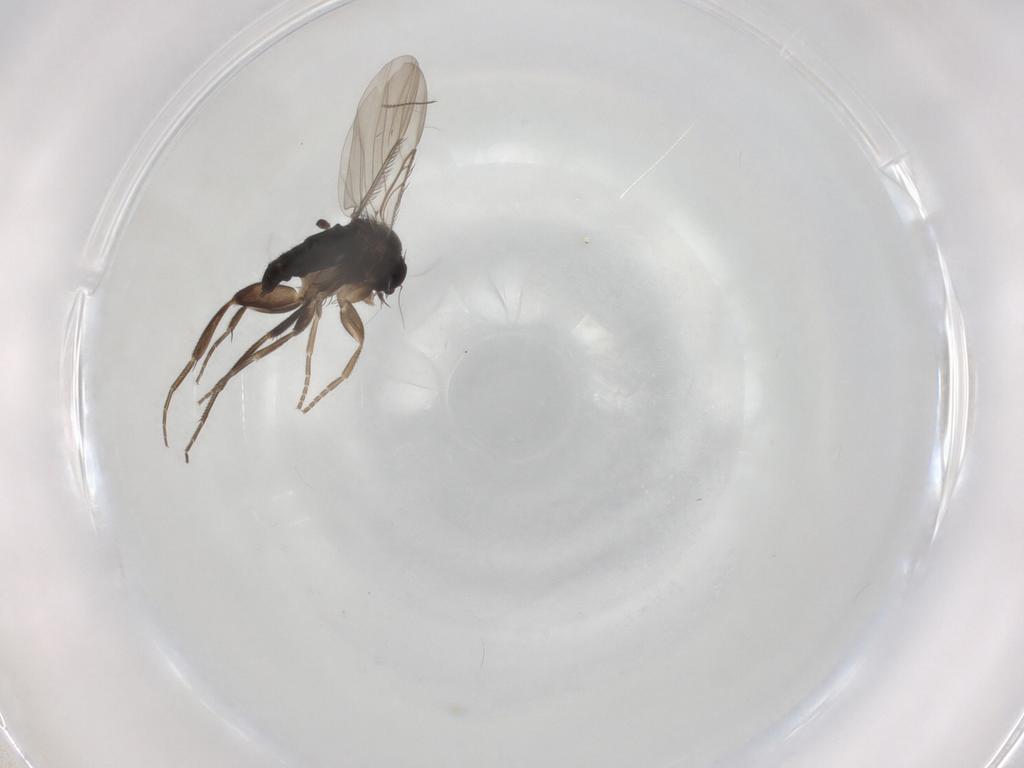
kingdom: Animalia
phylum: Arthropoda
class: Insecta
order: Diptera
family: Phoridae
